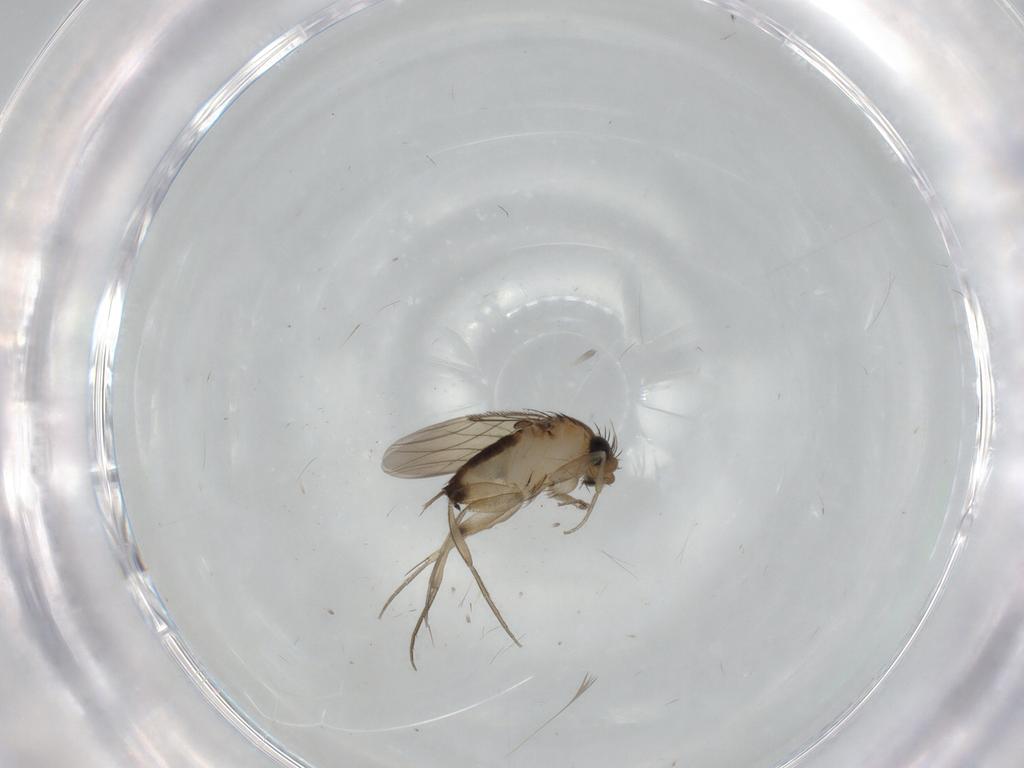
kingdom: Animalia
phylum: Arthropoda
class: Insecta
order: Diptera
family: Phoridae
